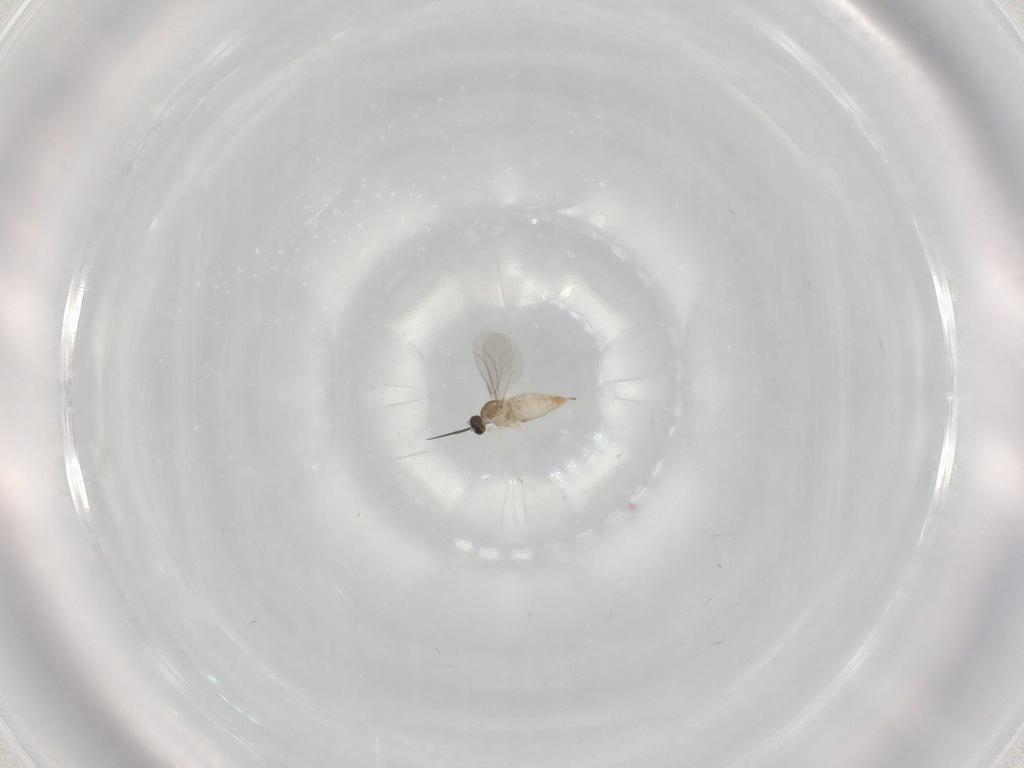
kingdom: Animalia
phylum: Arthropoda
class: Insecta
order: Diptera
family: Cecidomyiidae
